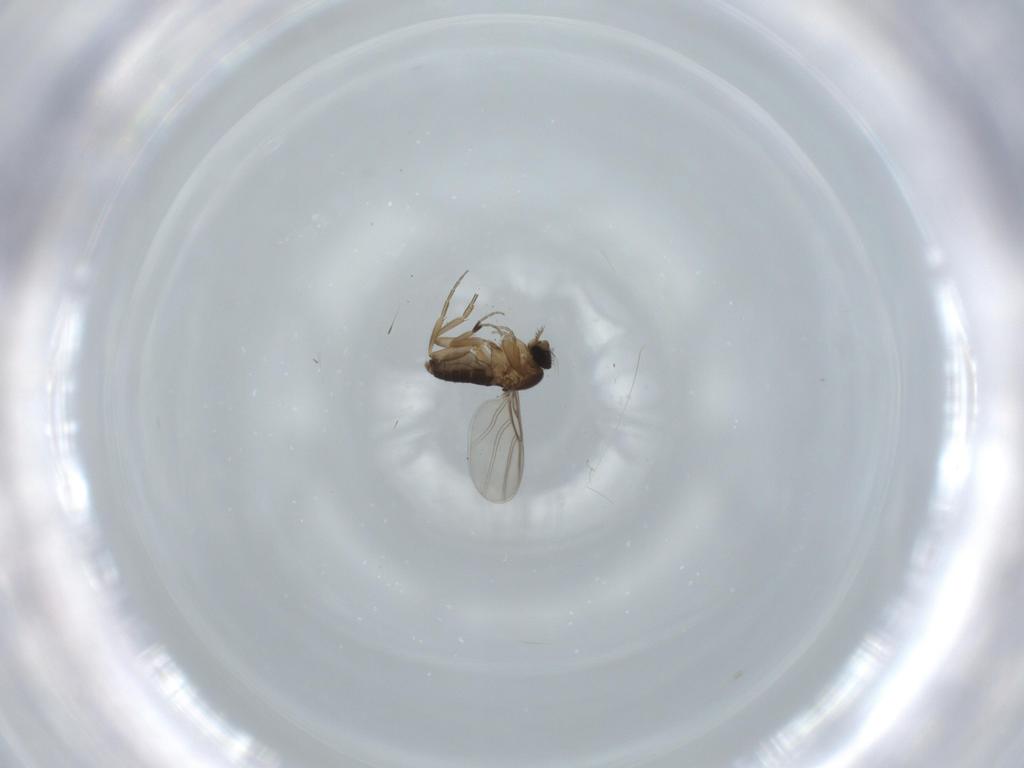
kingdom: Animalia
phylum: Arthropoda
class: Insecta
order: Diptera
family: Phoridae
